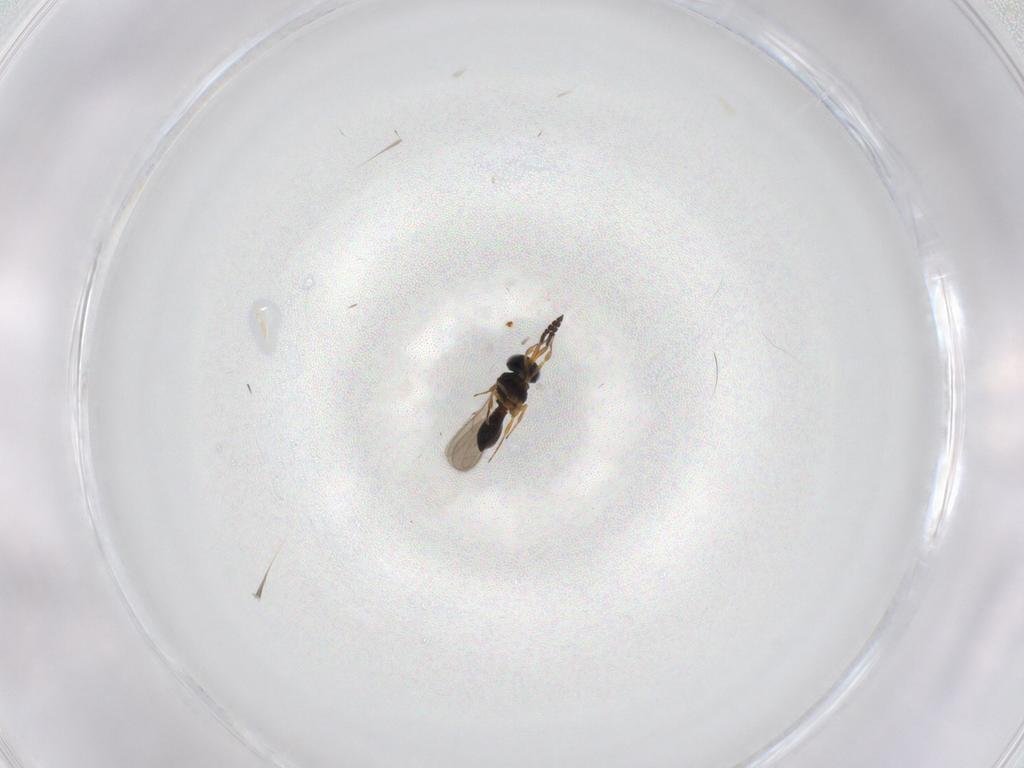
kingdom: Animalia
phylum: Arthropoda
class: Insecta
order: Hymenoptera
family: Scelionidae
